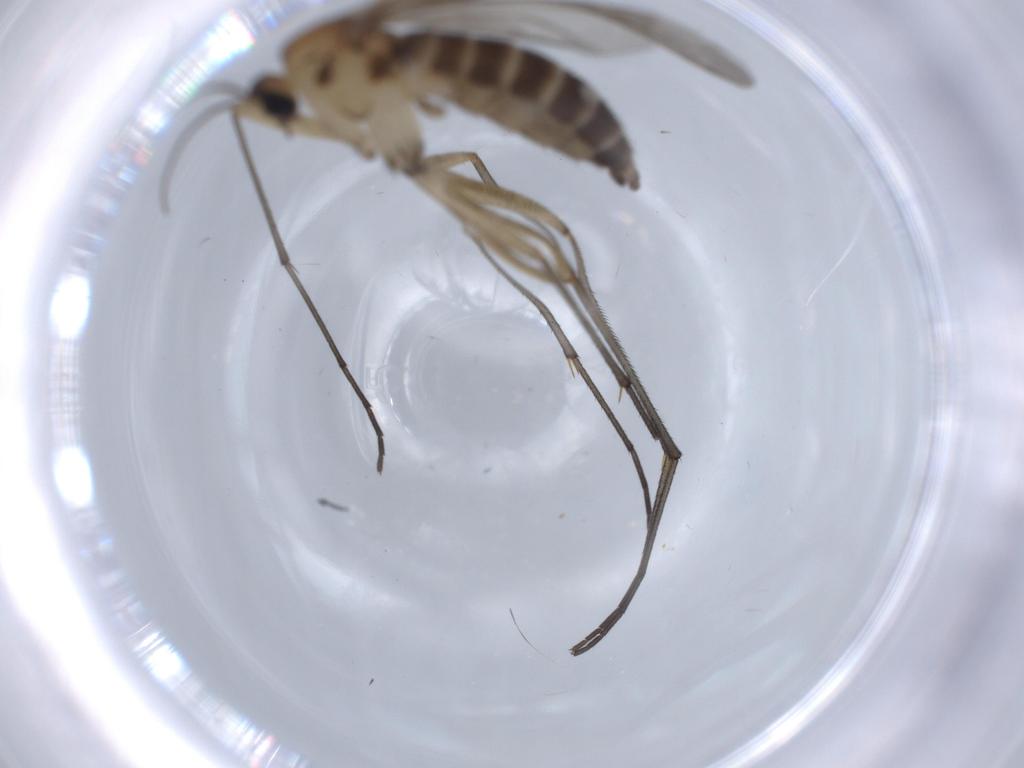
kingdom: Animalia
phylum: Arthropoda
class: Insecta
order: Diptera
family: Sciaridae
